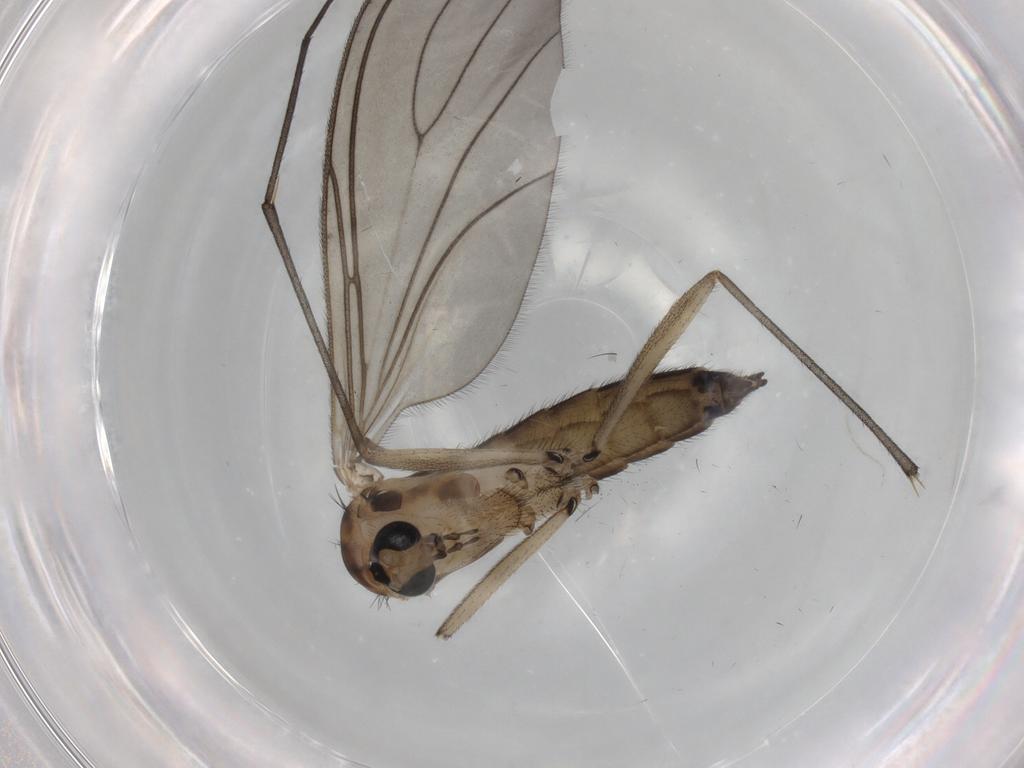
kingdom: Animalia
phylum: Arthropoda
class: Insecta
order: Diptera
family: Sciaridae
